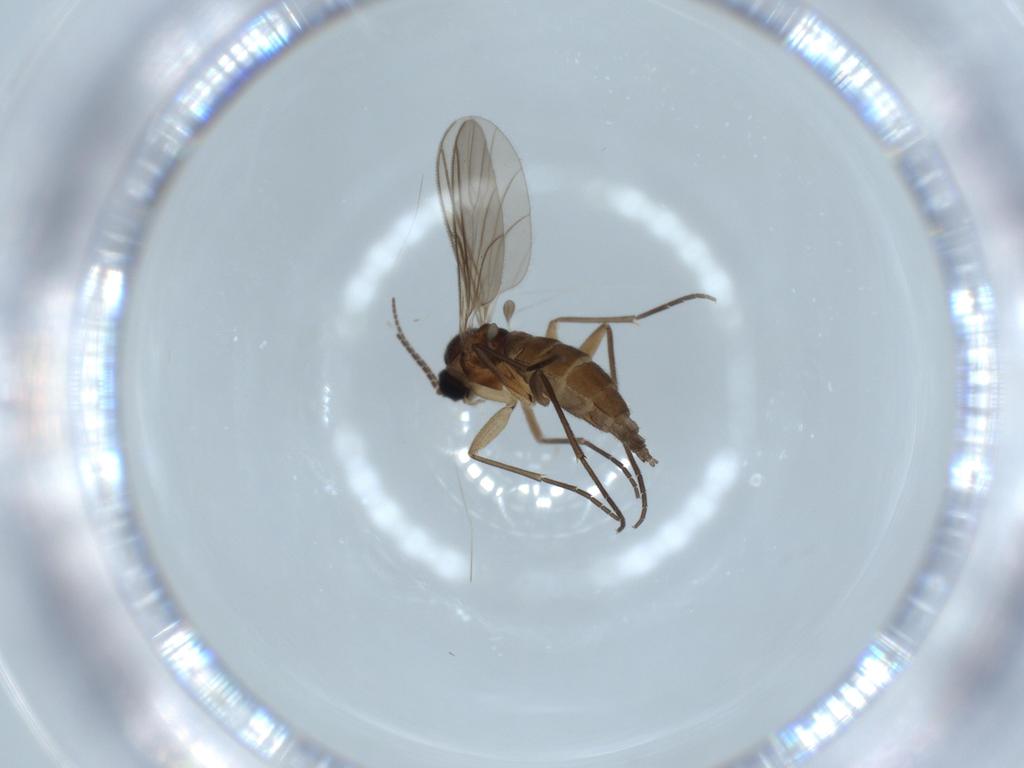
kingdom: Animalia
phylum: Arthropoda
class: Insecta
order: Diptera
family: Sciaridae
